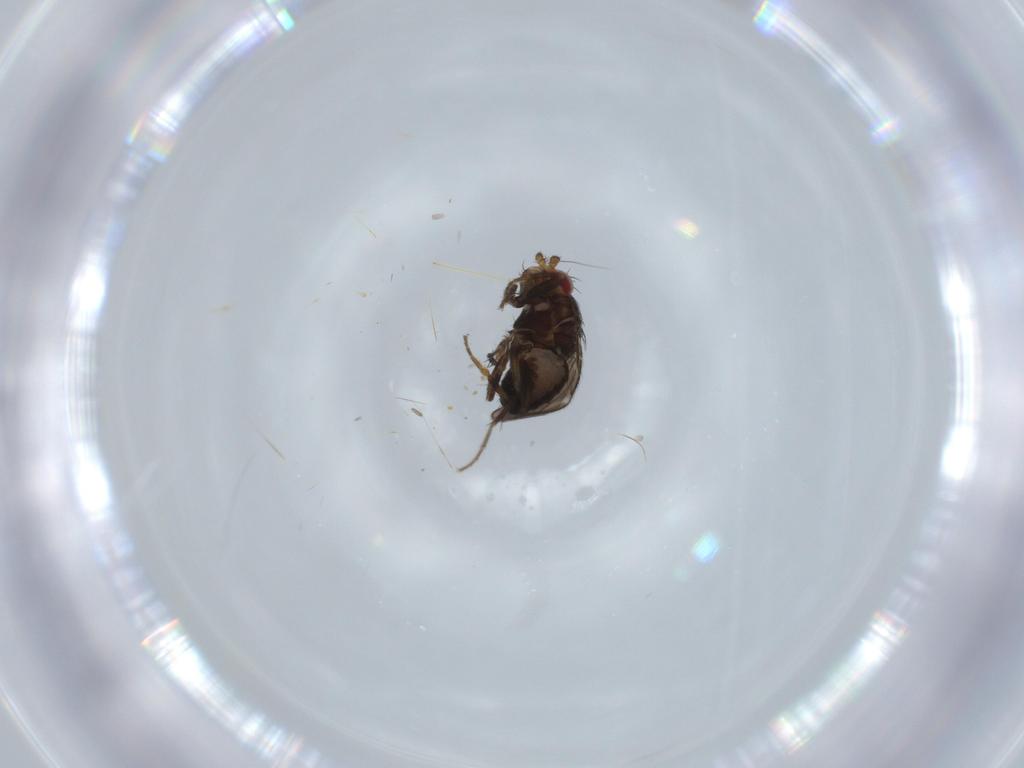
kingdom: Animalia
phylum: Arthropoda
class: Insecta
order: Diptera
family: Sphaeroceridae
